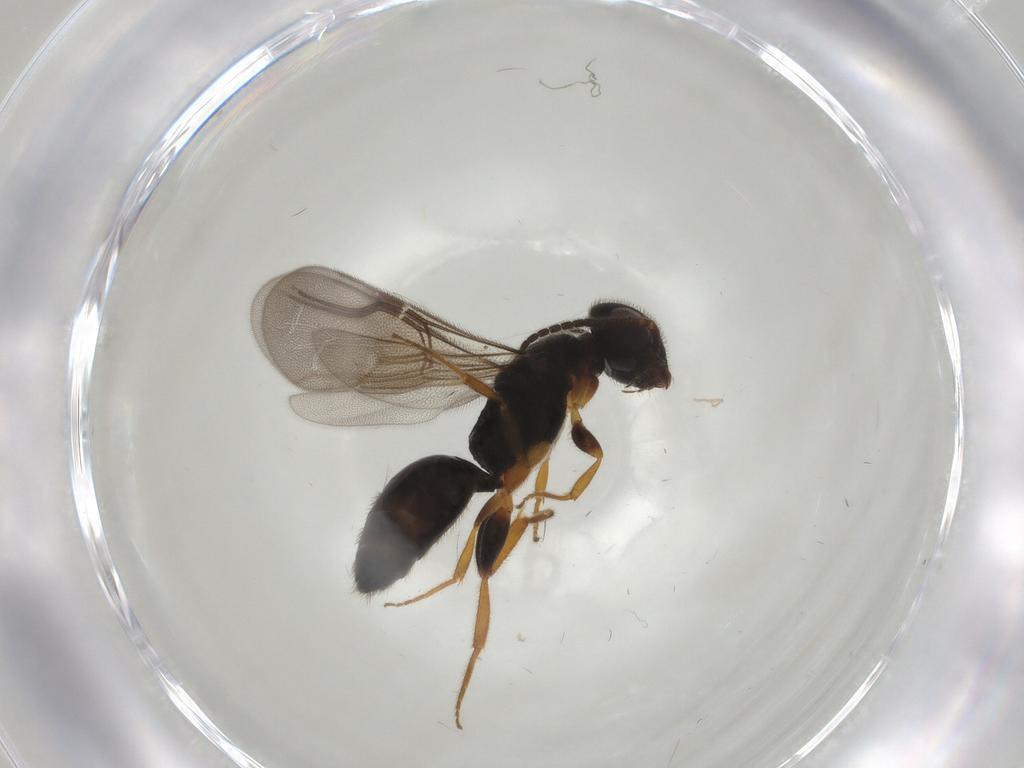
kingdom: Animalia
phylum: Arthropoda
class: Insecta
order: Hymenoptera
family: Bethylidae
